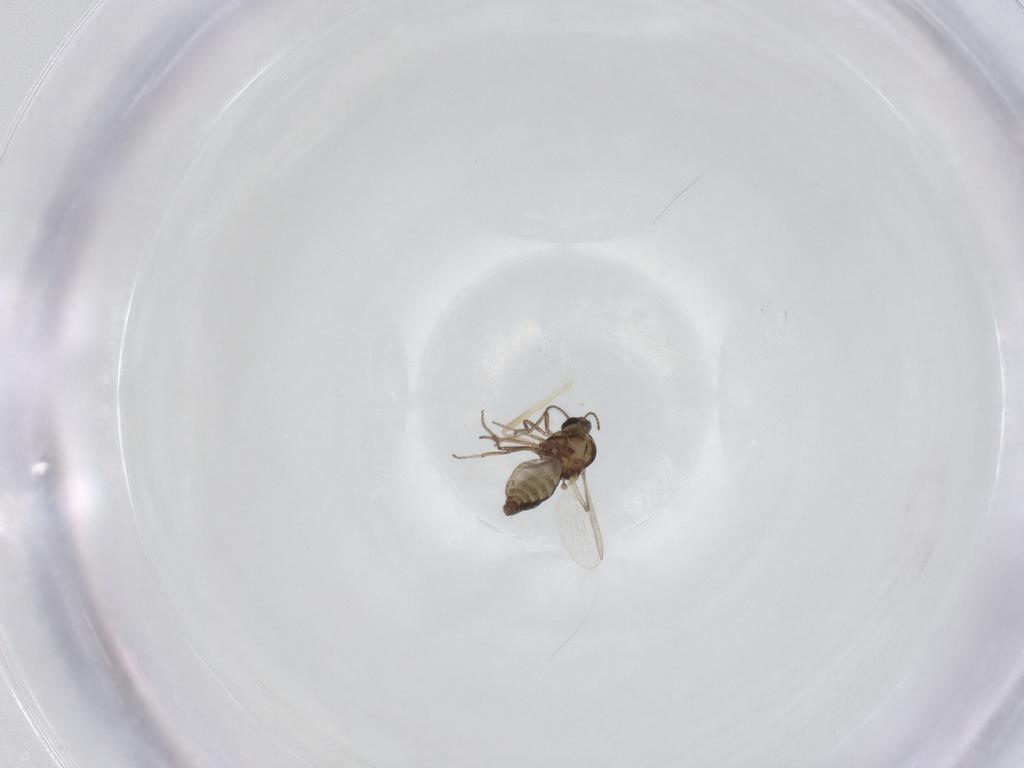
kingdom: Animalia
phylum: Arthropoda
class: Insecta
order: Diptera
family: Ceratopogonidae
